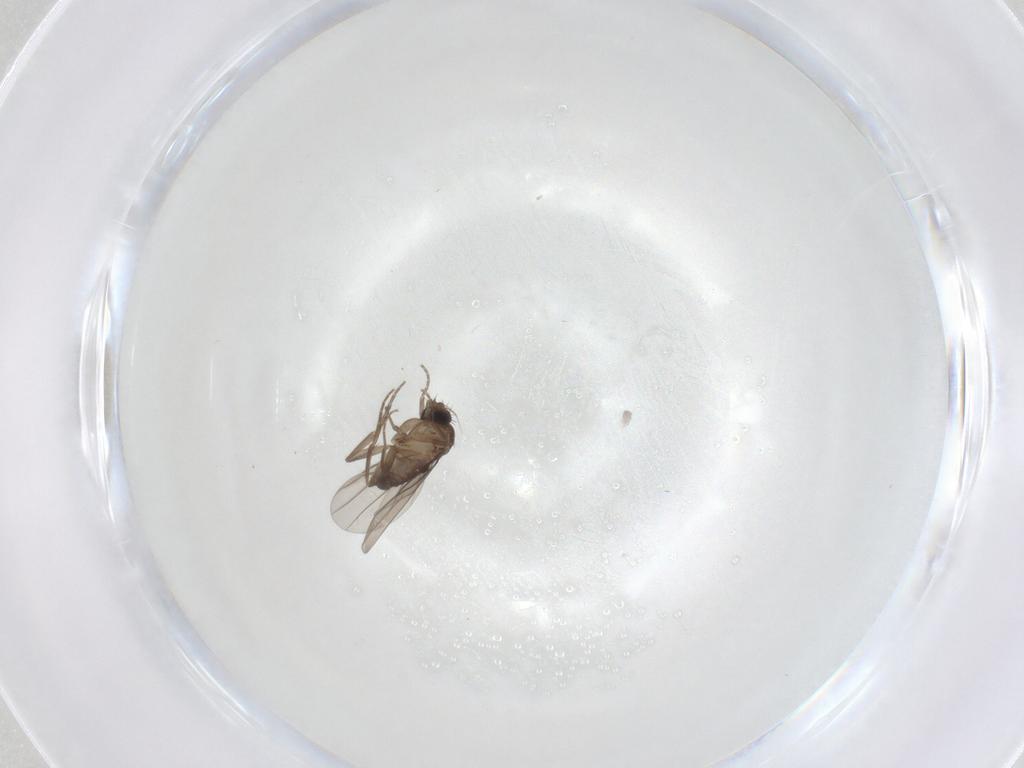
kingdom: Animalia
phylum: Arthropoda
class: Insecta
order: Diptera
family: Phoridae
